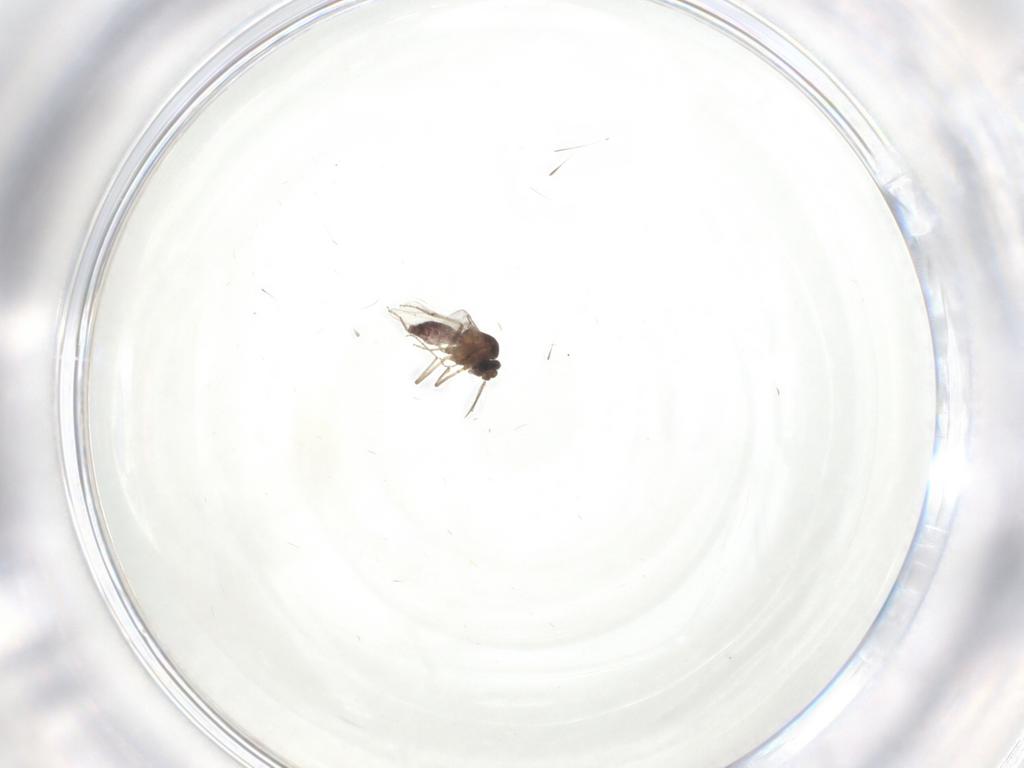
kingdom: Animalia
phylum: Arthropoda
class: Insecta
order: Diptera
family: Ceratopogonidae
